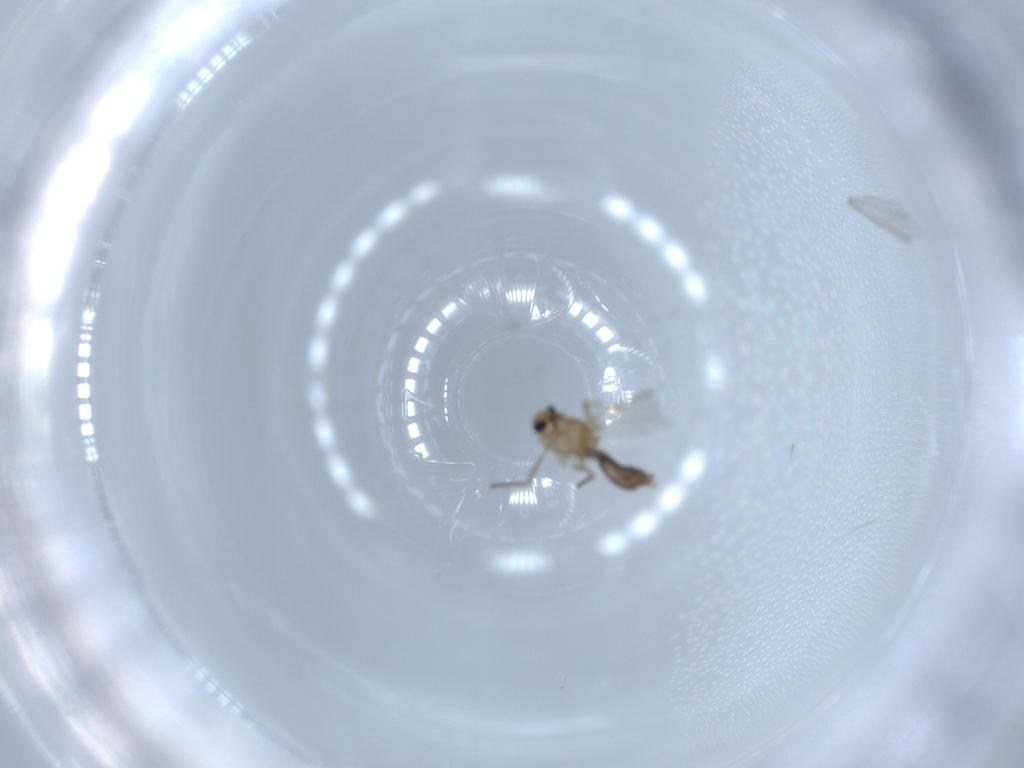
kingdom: Animalia
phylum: Arthropoda
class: Insecta
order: Diptera
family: Chironomidae
